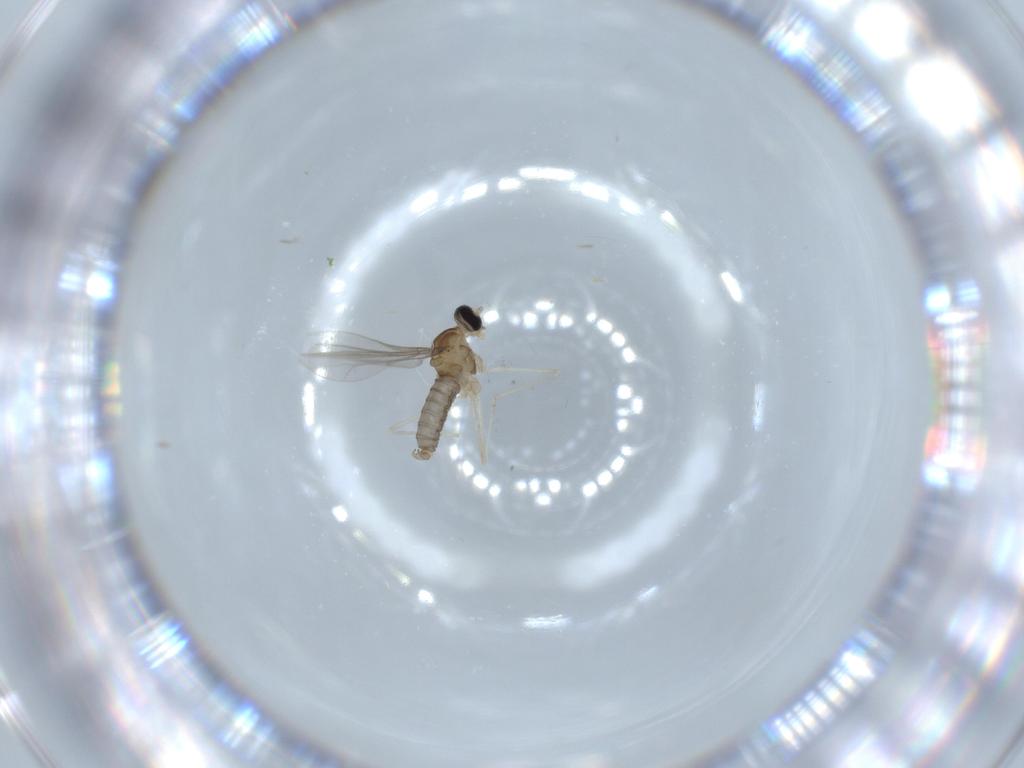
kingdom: Animalia
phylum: Arthropoda
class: Insecta
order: Diptera
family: Cecidomyiidae
